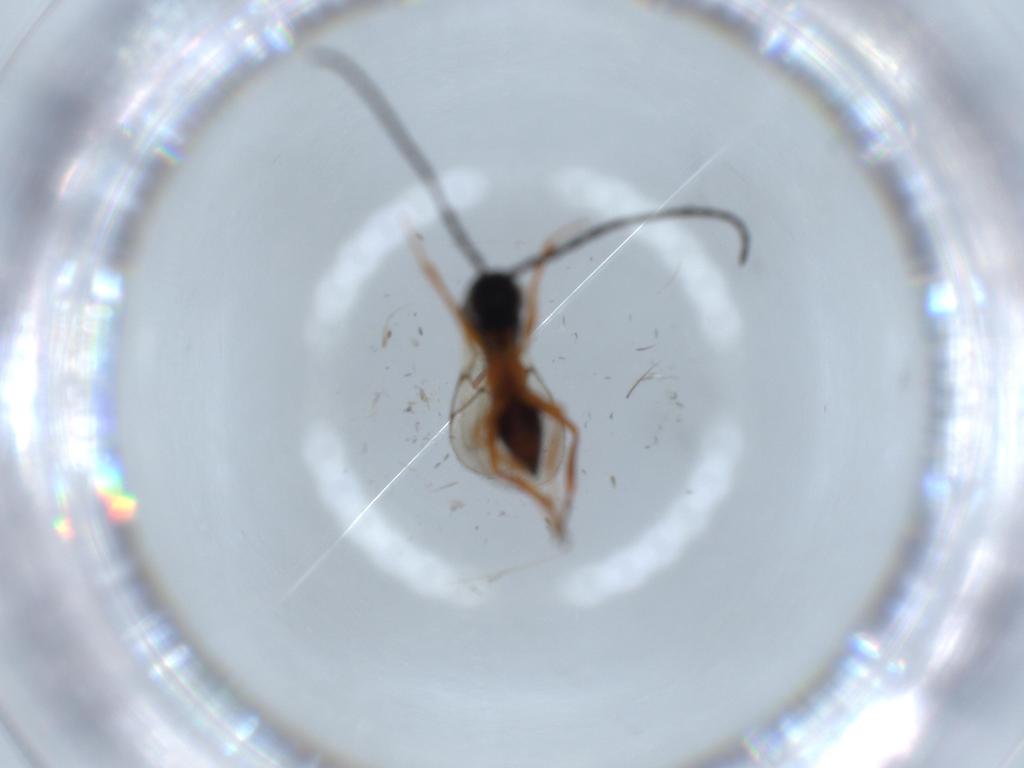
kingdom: Animalia
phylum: Arthropoda
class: Insecta
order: Hymenoptera
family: Figitidae
